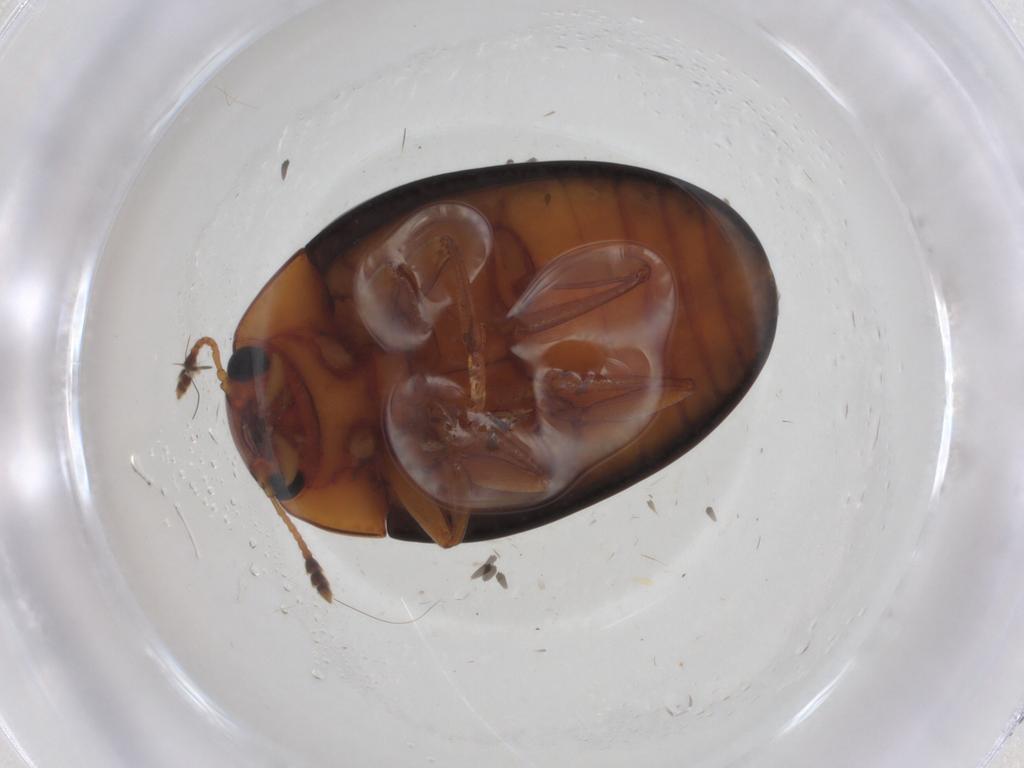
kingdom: Animalia
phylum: Arthropoda
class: Insecta
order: Coleoptera
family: Erotylidae
